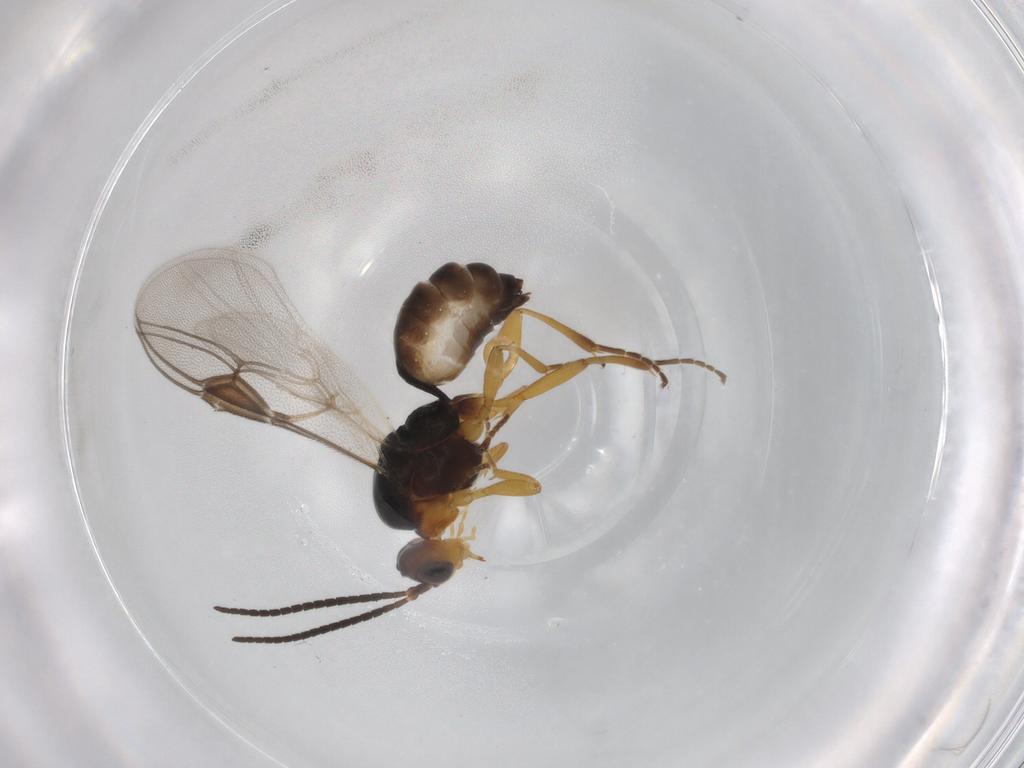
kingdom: Animalia
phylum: Arthropoda
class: Insecta
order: Hymenoptera
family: Braconidae
